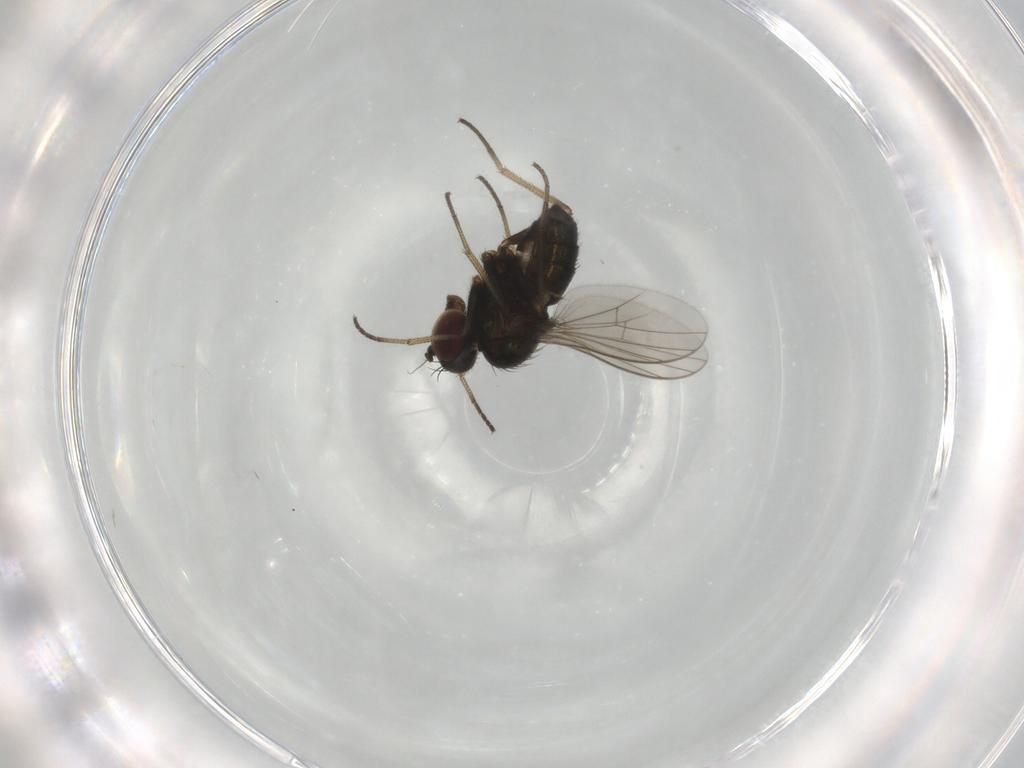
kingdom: Animalia
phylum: Arthropoda
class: Insecta
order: Diptera
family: Dolichopodidae
